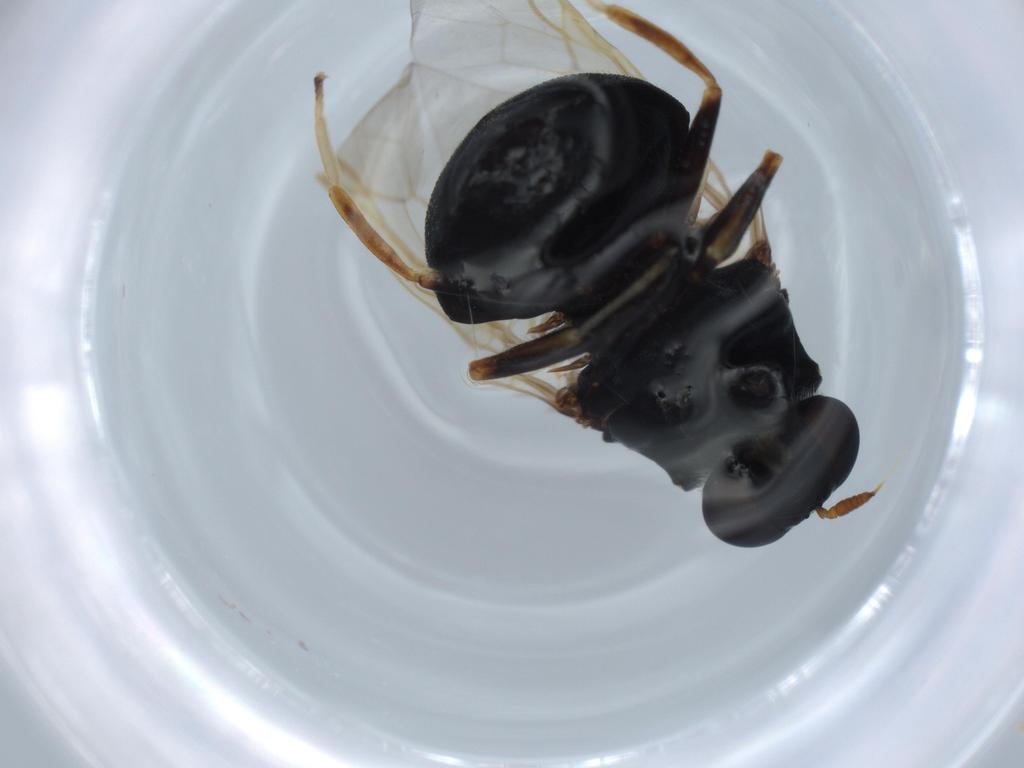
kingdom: Animalia
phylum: Arthropoda
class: Insecta
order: Diptera
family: Stratiomyidae
